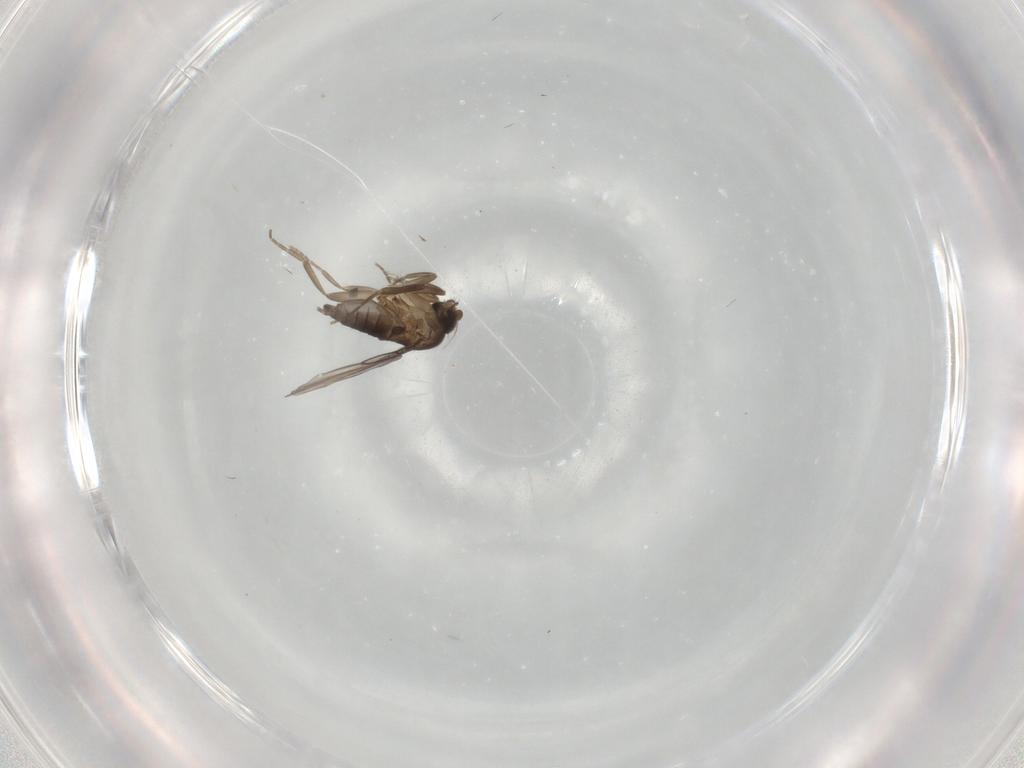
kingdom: Animalia
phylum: Arthropoda
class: Insecta
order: Diptera
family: Phoridae
